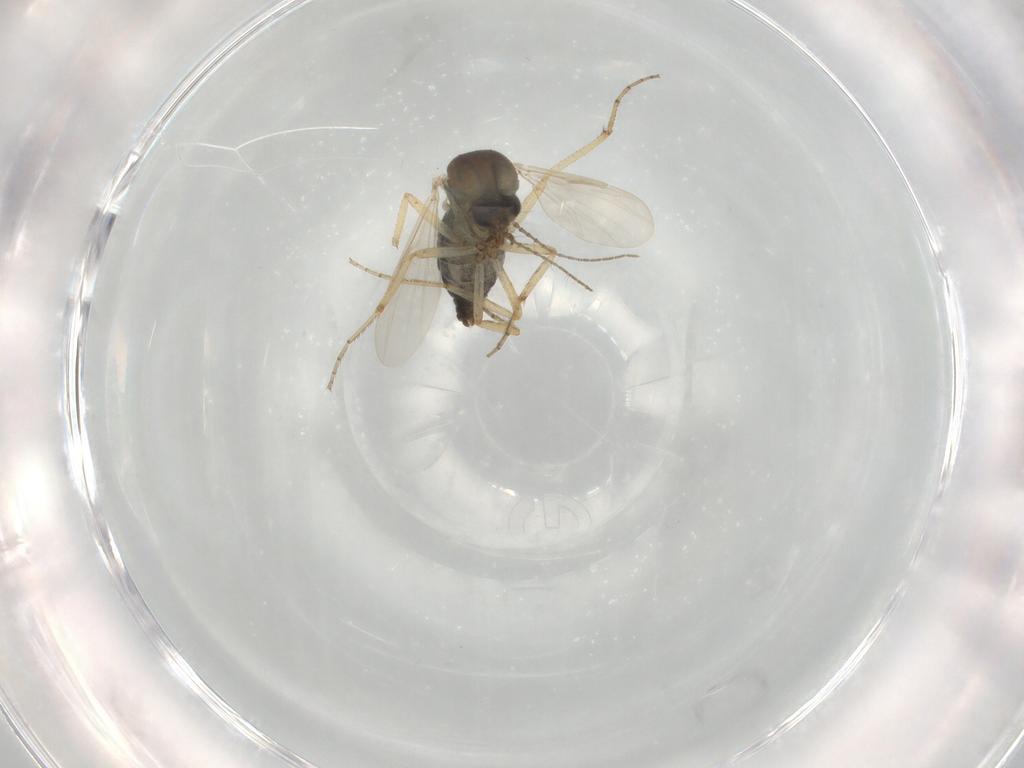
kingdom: Animalia
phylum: Arthropoda
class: Insecta
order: Diptera
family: Ceratopogonidae
